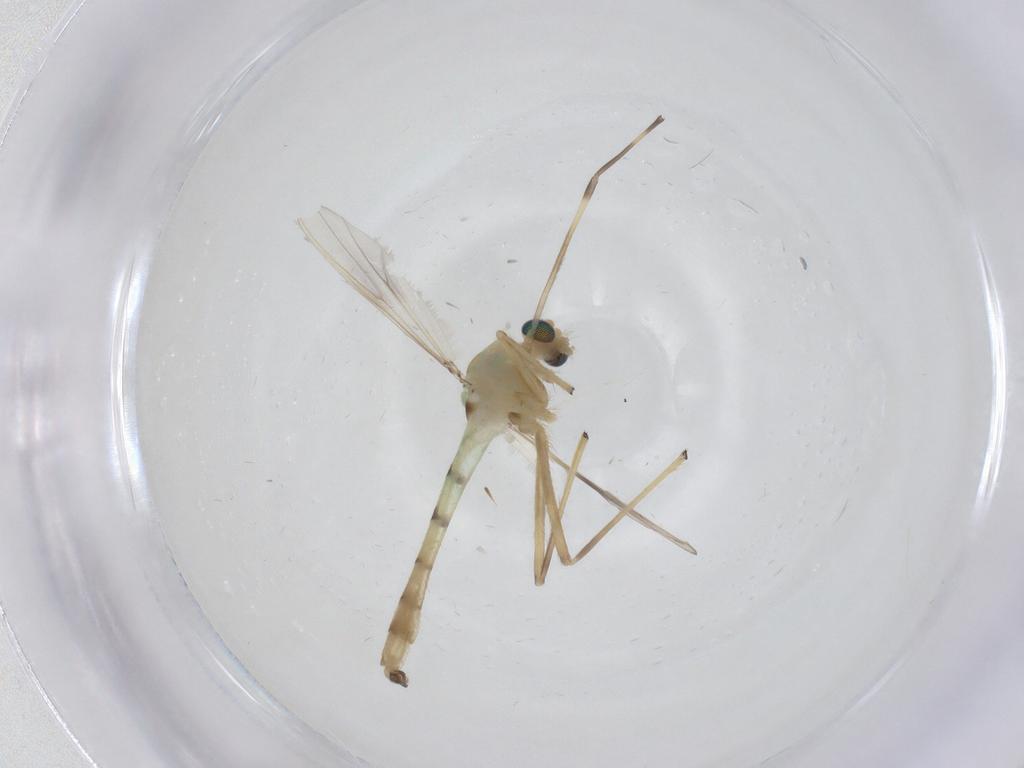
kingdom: Animalia
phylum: Arthropoda
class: Insecta
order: Diptera
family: Chironomidae
